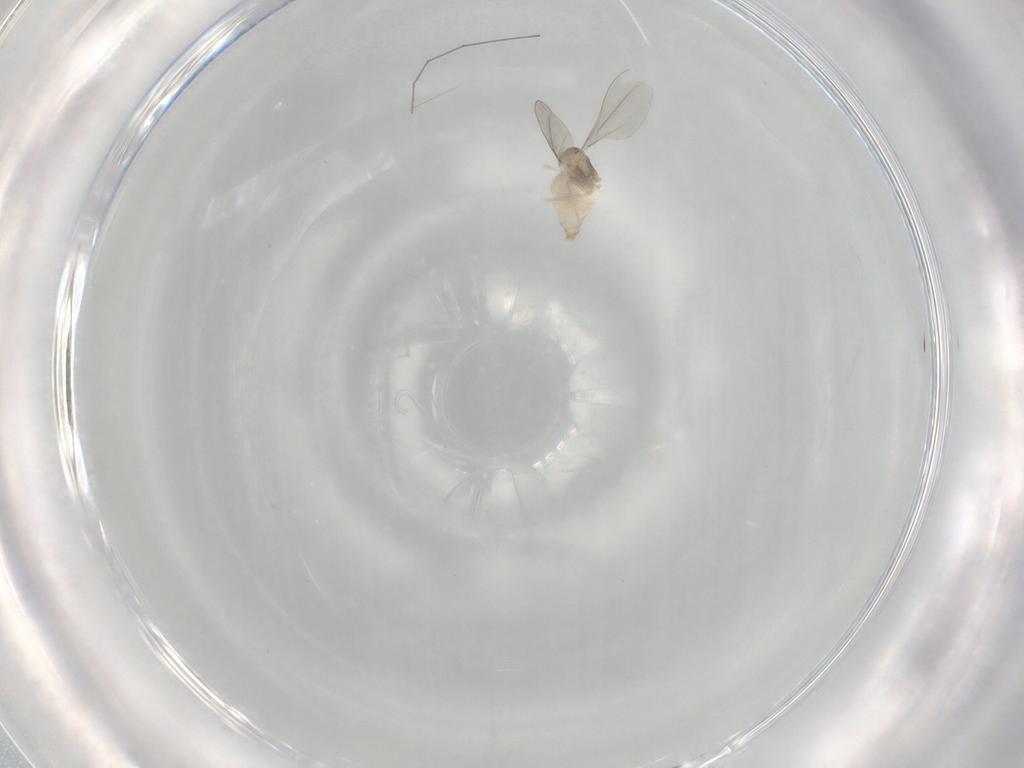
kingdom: Animalia
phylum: Arthropoda
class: Insecta
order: Diptera
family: Cecidomyiidae
